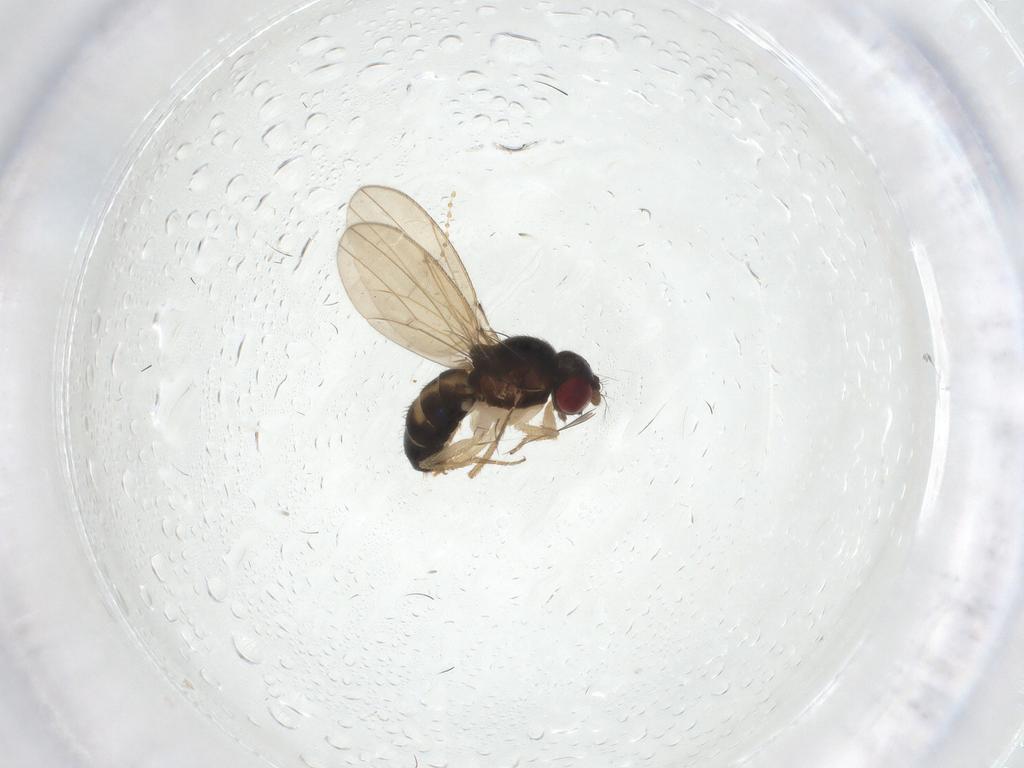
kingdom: Animalia
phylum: Arthropoda
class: Insecta
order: Diptera
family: Drosophilidae
